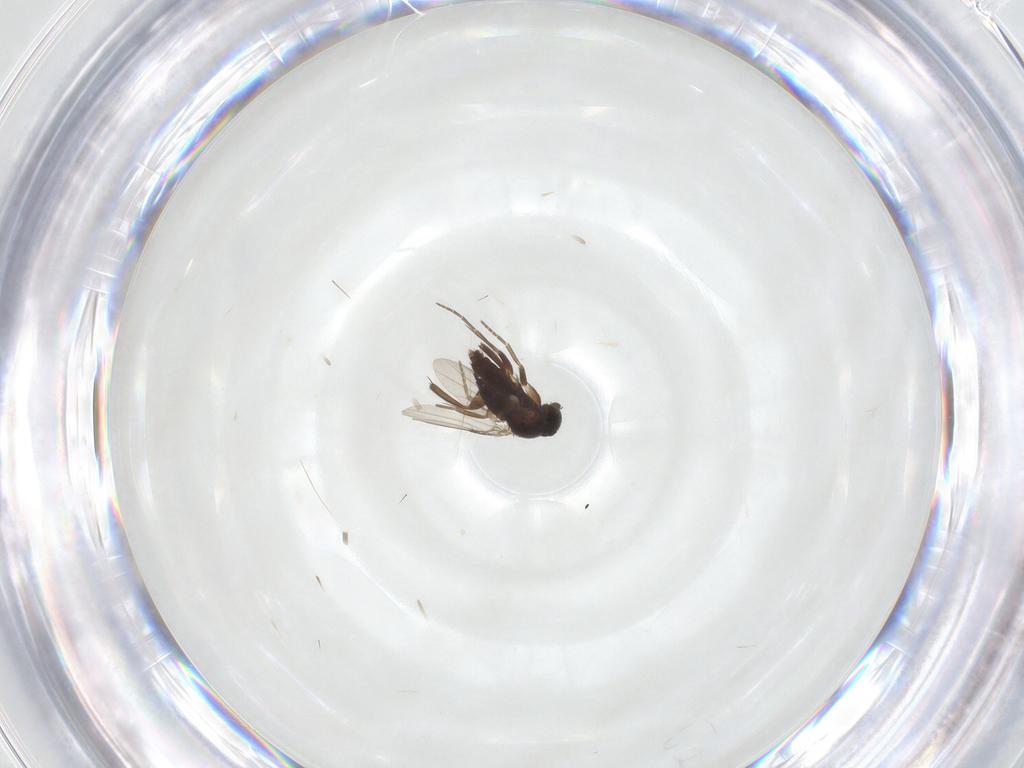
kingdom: Animalia
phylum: Arthropoda
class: Insecta
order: Diptera
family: Phoridae
